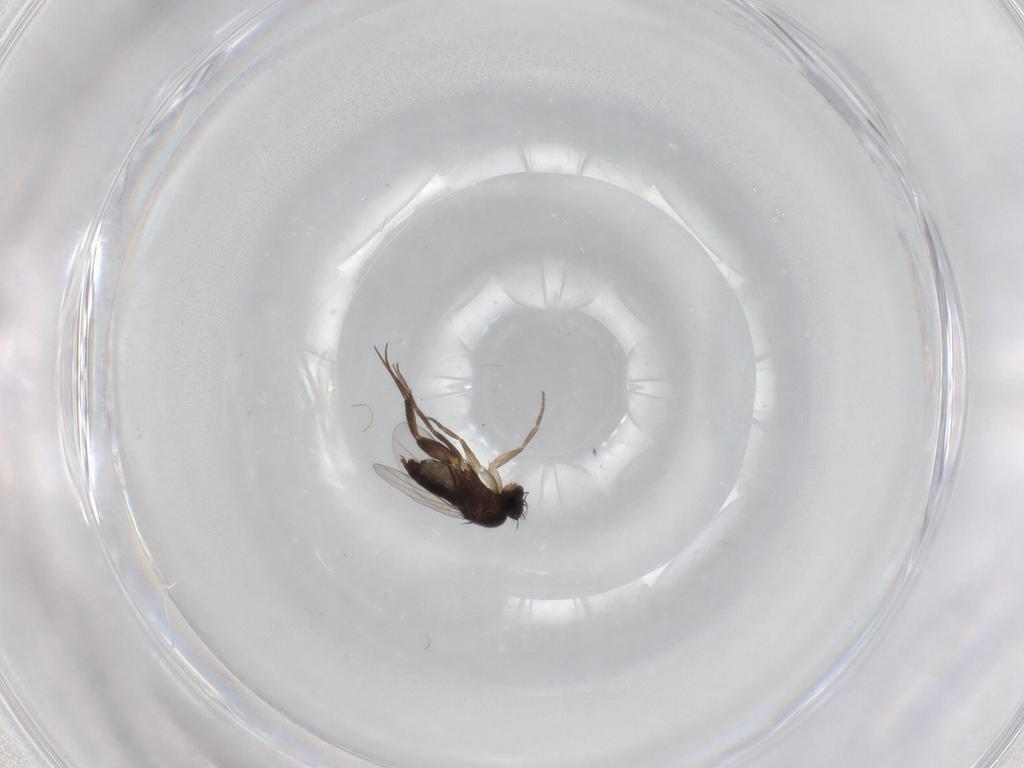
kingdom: Animalia
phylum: Arthropoda
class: Insecta
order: Diptera
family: Phoridae
